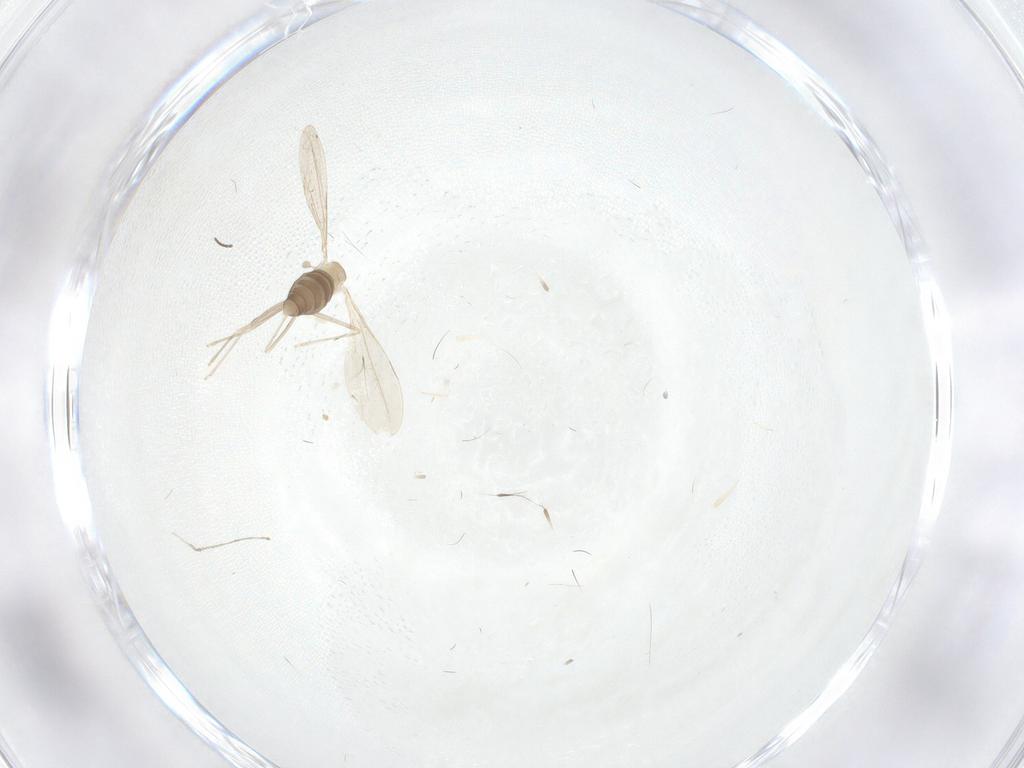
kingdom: Animalia
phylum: Arthropoda
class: Insecta
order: Diptera
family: Cecidomyiidae
